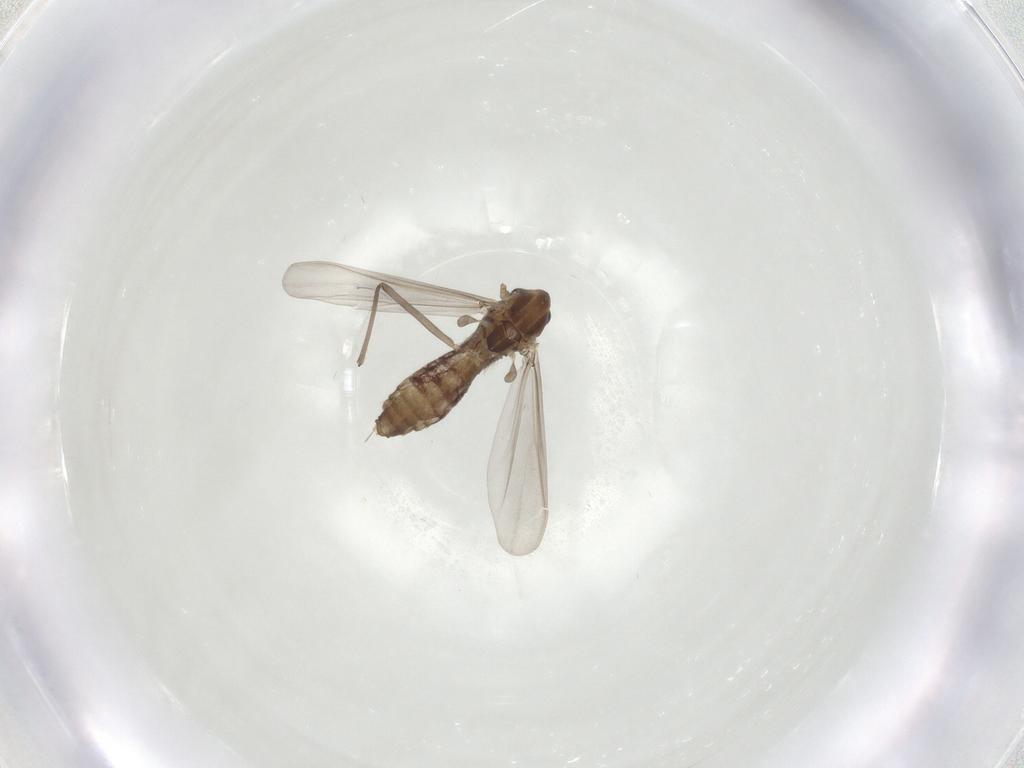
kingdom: Animalia
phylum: Arthropoda
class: Insecta
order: Diptera
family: Chironomidae
